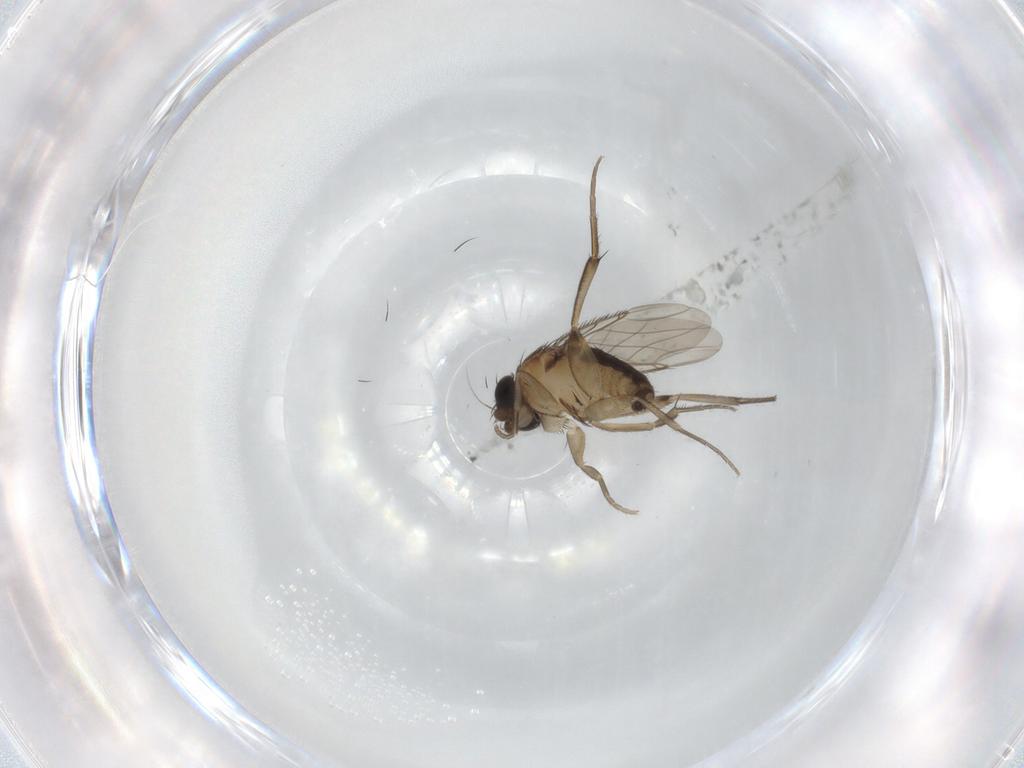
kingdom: Animalia
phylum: Arthropoda
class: Insecta
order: Diptera
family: Phoridae
